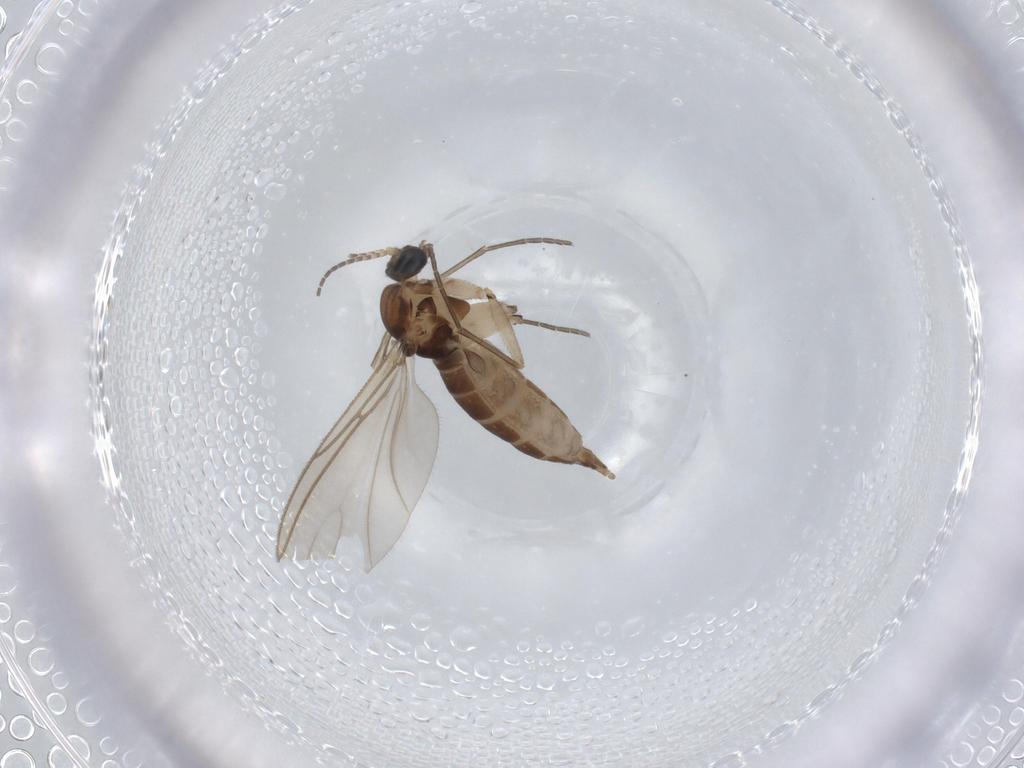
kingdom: Animalia
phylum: Arthropoda
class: Insecta
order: Diptera
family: Sciaridae
